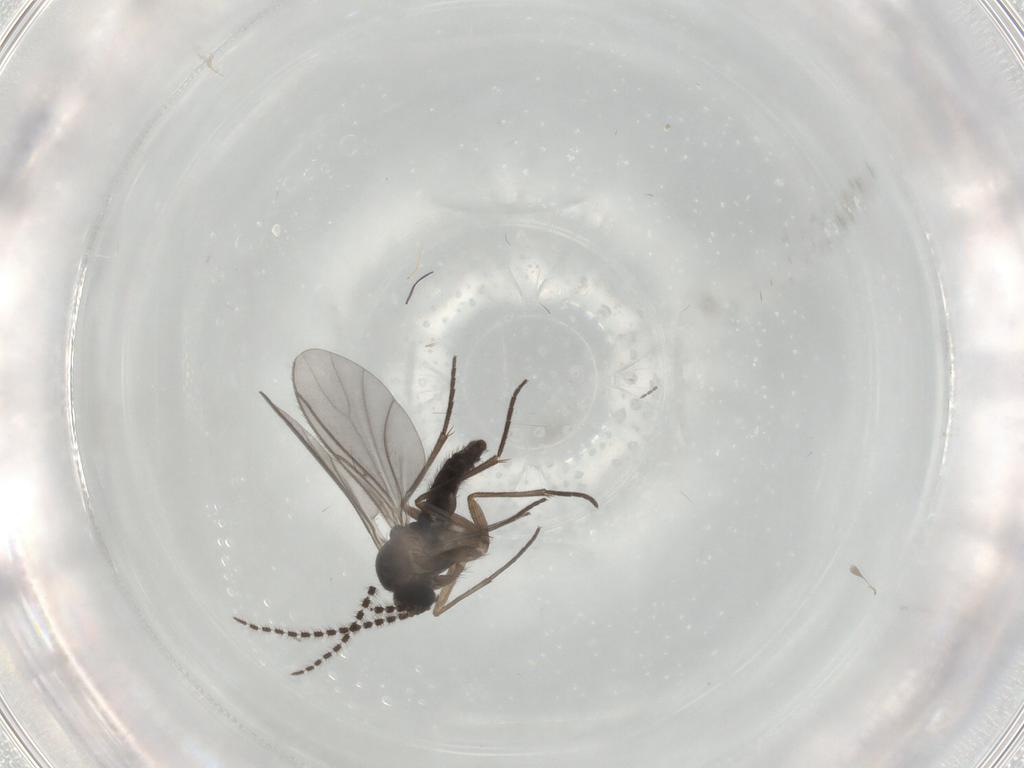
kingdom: Animalia
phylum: Arthropoda
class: Insecta
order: Diptera
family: Sciaridae
